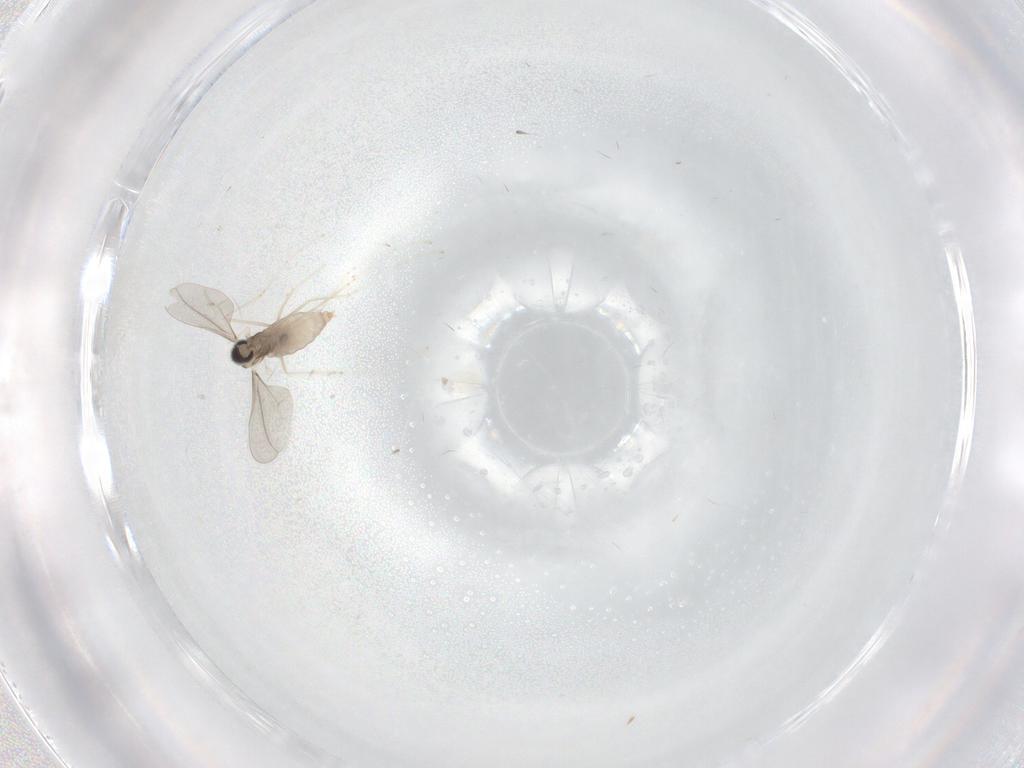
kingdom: Animalia
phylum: Arthropoda
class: Insecta
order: Diptera
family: Cecidomyiidae
